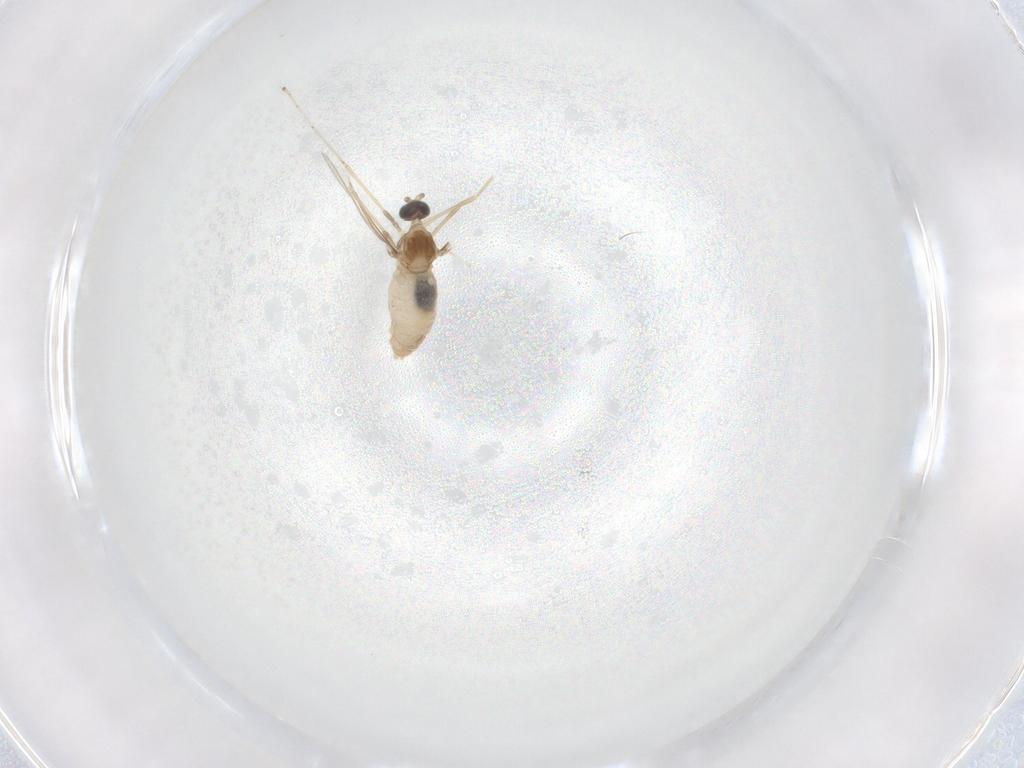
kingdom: Animalia
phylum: Arthropoda
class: Insecta
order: Diptera
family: Cecidomyiidae
